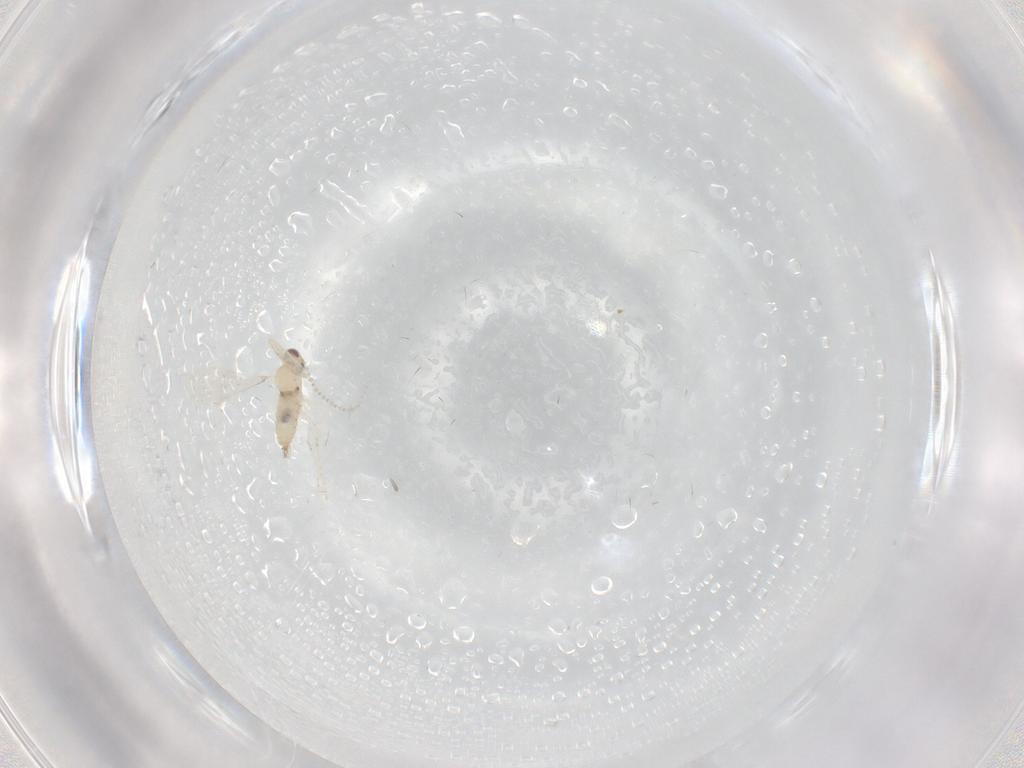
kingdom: Animalia
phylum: Arthropoda
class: Insecta
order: Diptera
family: Cecidomyiidae
